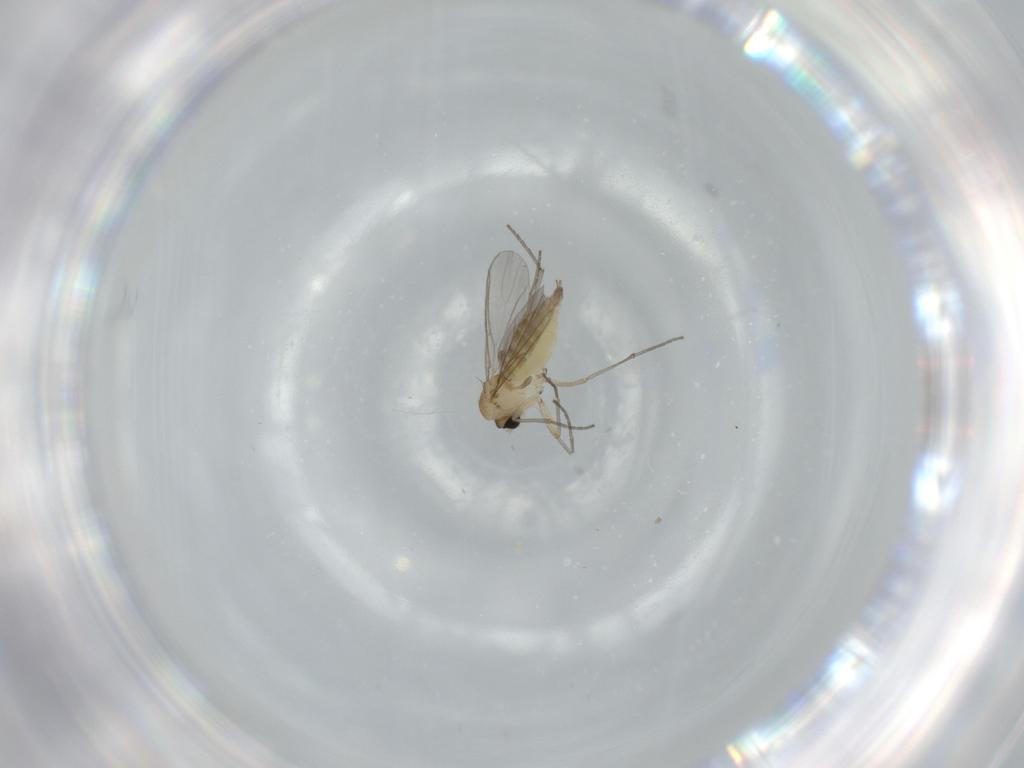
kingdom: Animalia
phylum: Arthropoda
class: Insecta
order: Diptera
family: Sciaridae
